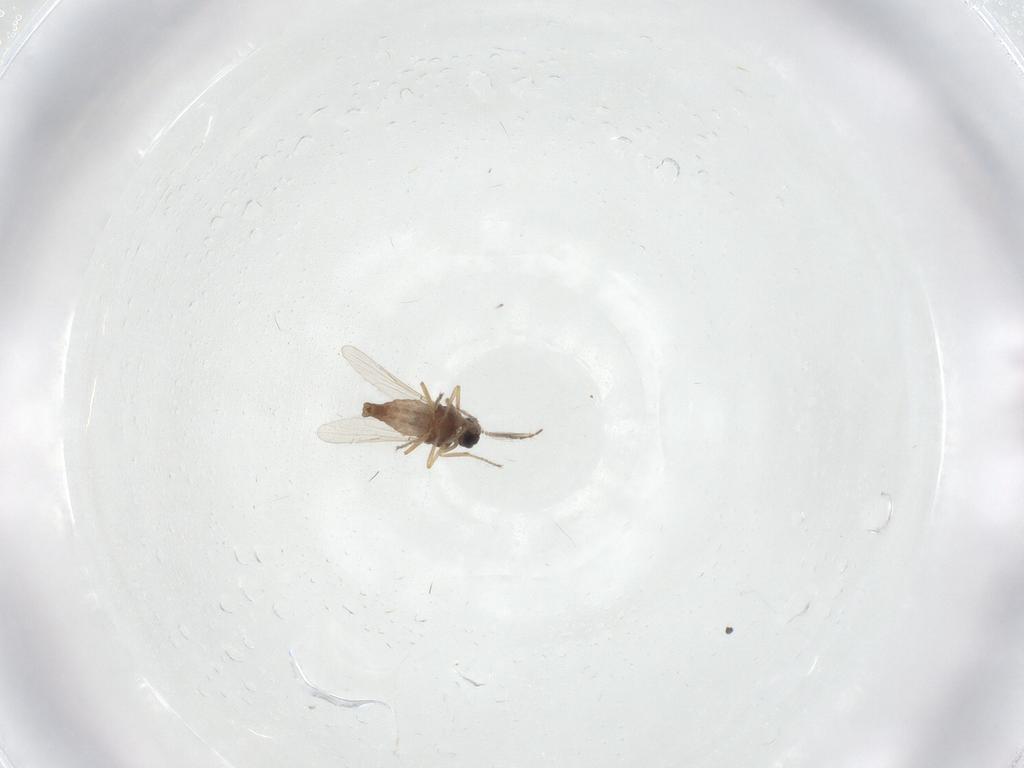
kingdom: Animalia
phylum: Arthropoda
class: Insecta
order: Diptera
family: Ceratopogonidae
